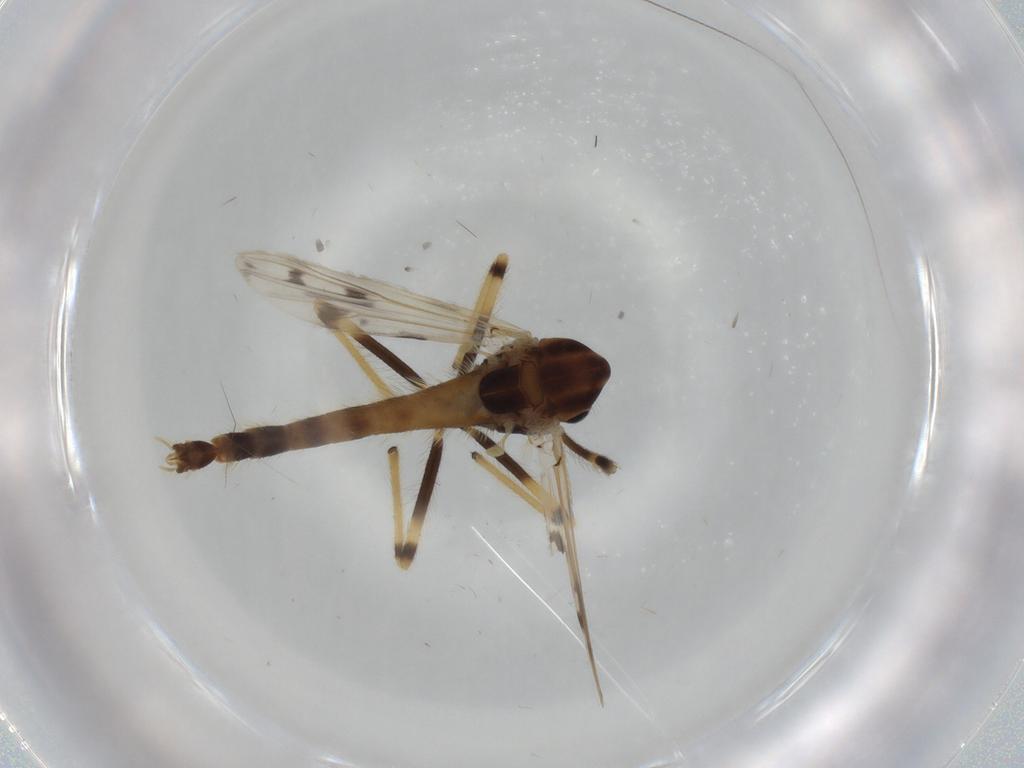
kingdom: Animalia
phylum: Arthropoda
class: Insecta
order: Diptera
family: Chironomidae
